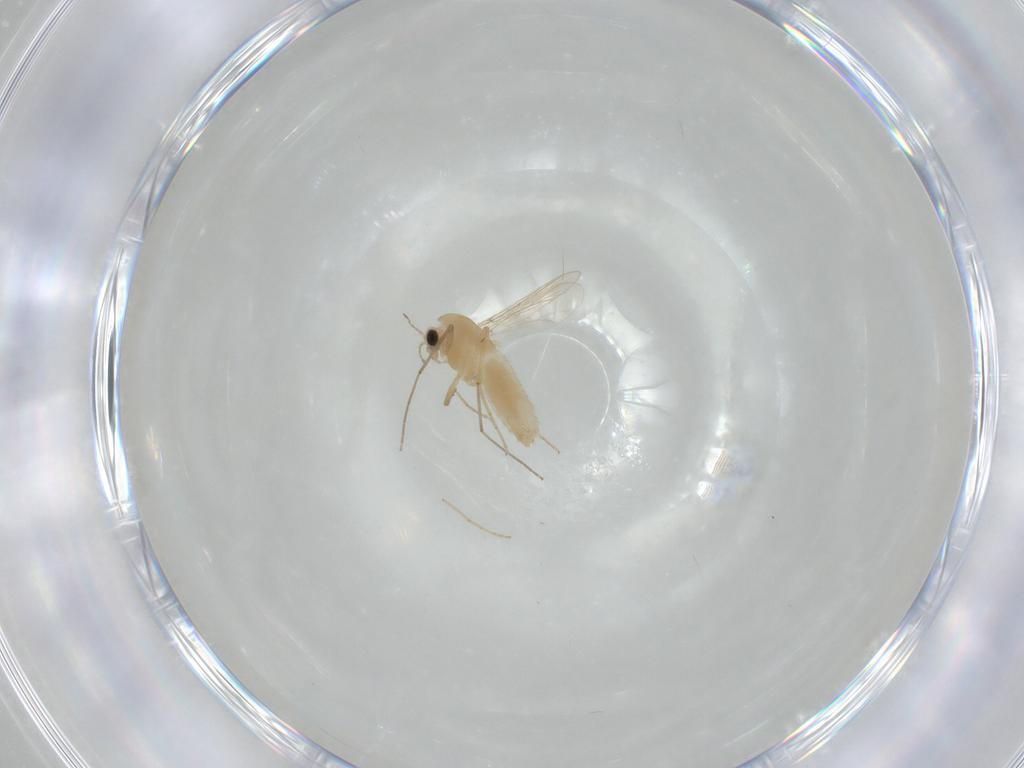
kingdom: Animalia
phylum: Arthropoda
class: Insecta
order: Diptera
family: Chironomidae
